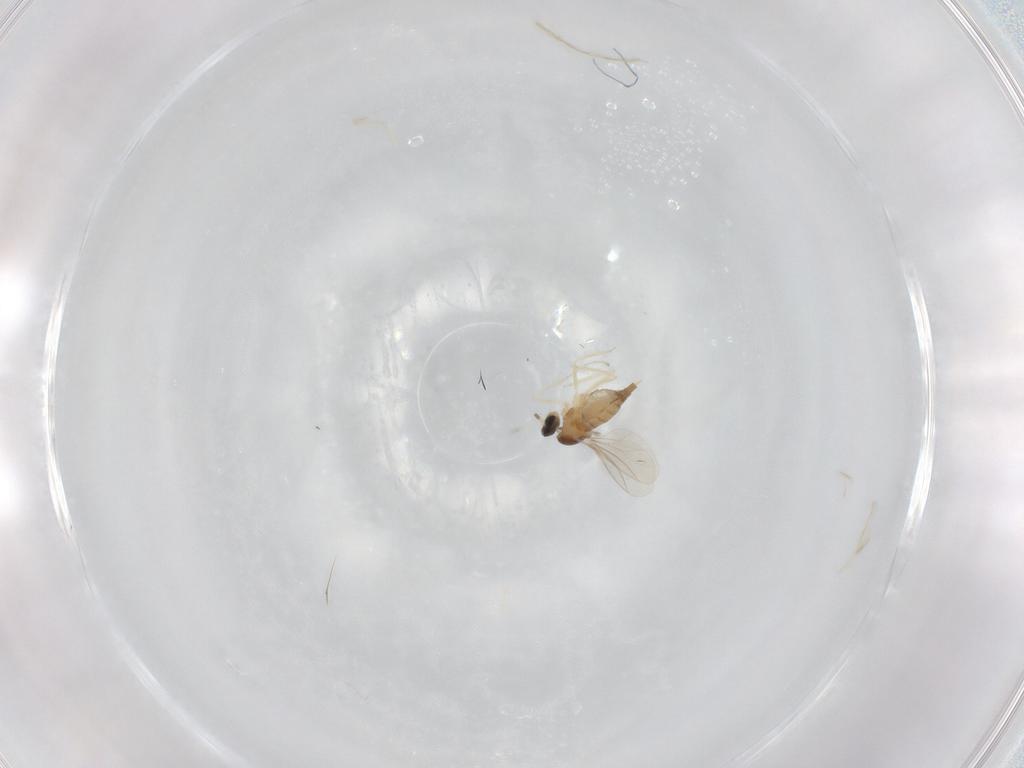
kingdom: Animalia
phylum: Arthropoda
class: Insecta
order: Diptera
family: Psychodidae
